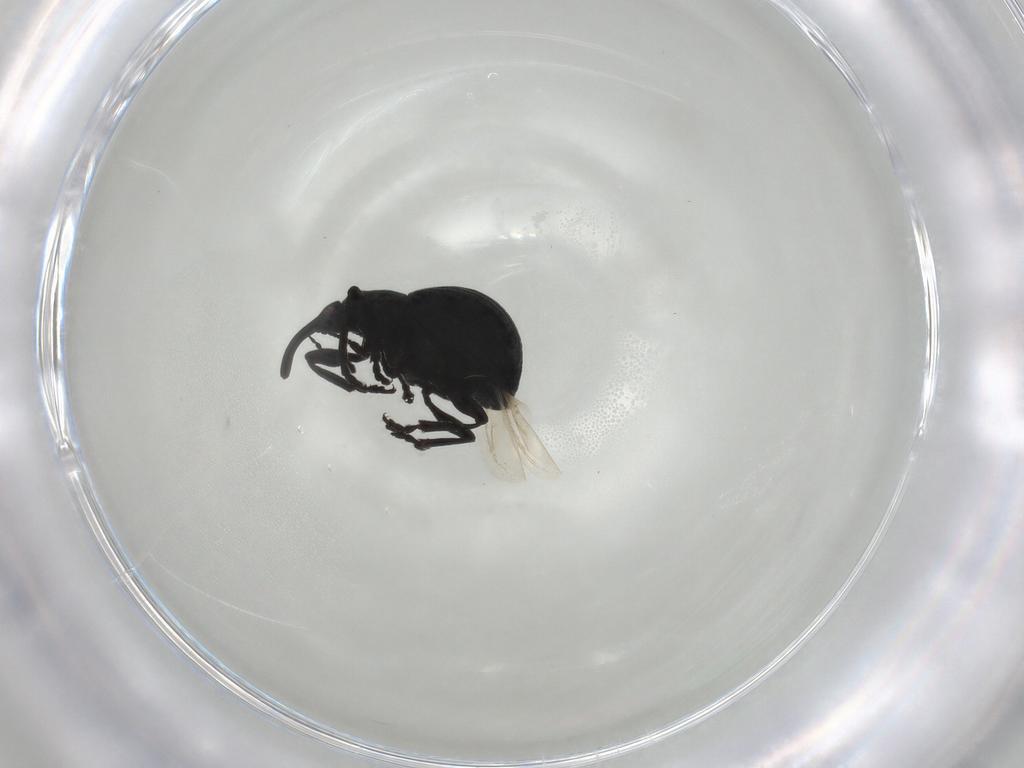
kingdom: Animalia
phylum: Arthropoda
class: Insecta
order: Coleoptera
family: Brentidae
